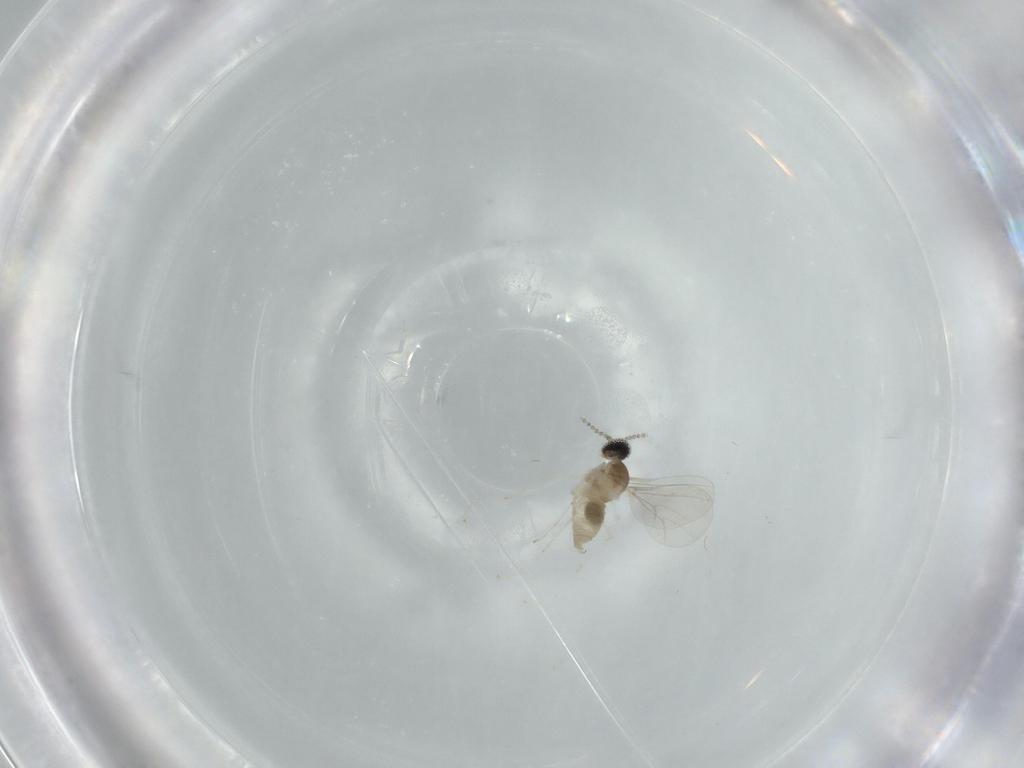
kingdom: Animalia
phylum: Arthropoda
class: Insecta
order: Diptera
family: Cecidomyiidae
